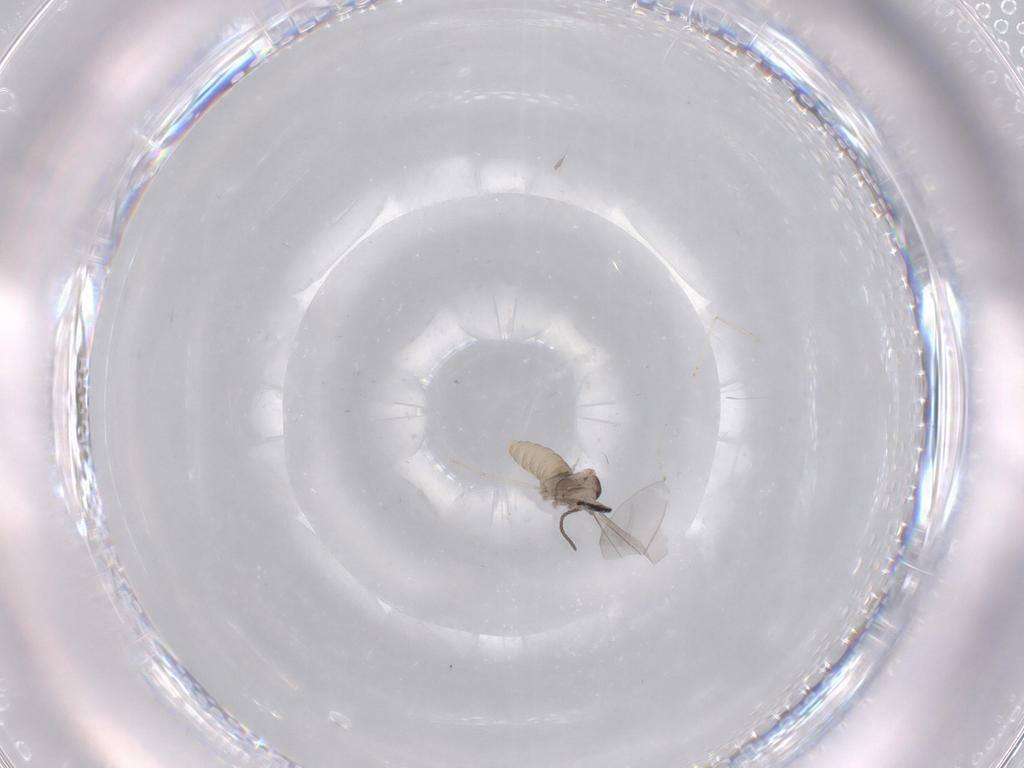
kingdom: Animalia
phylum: Arthropoda
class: Insecta
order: Diptera
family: Cecidomyiidae
